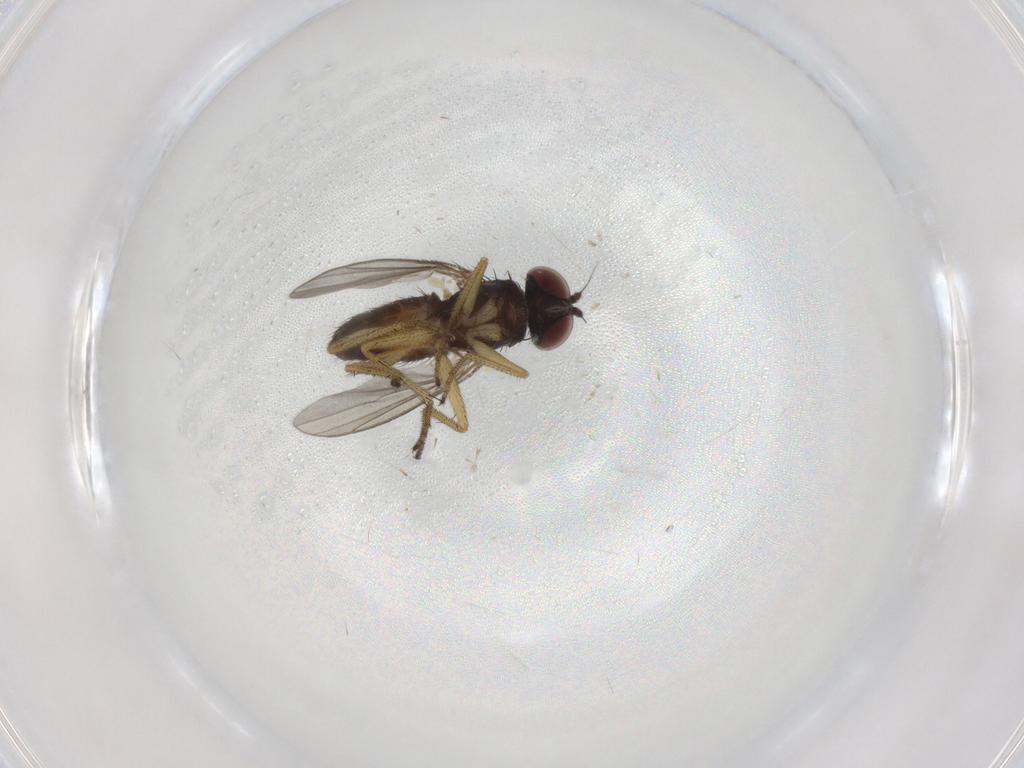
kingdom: Animalia
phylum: Arthropoda
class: Insecta
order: Diptera
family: Dolichopodidae
